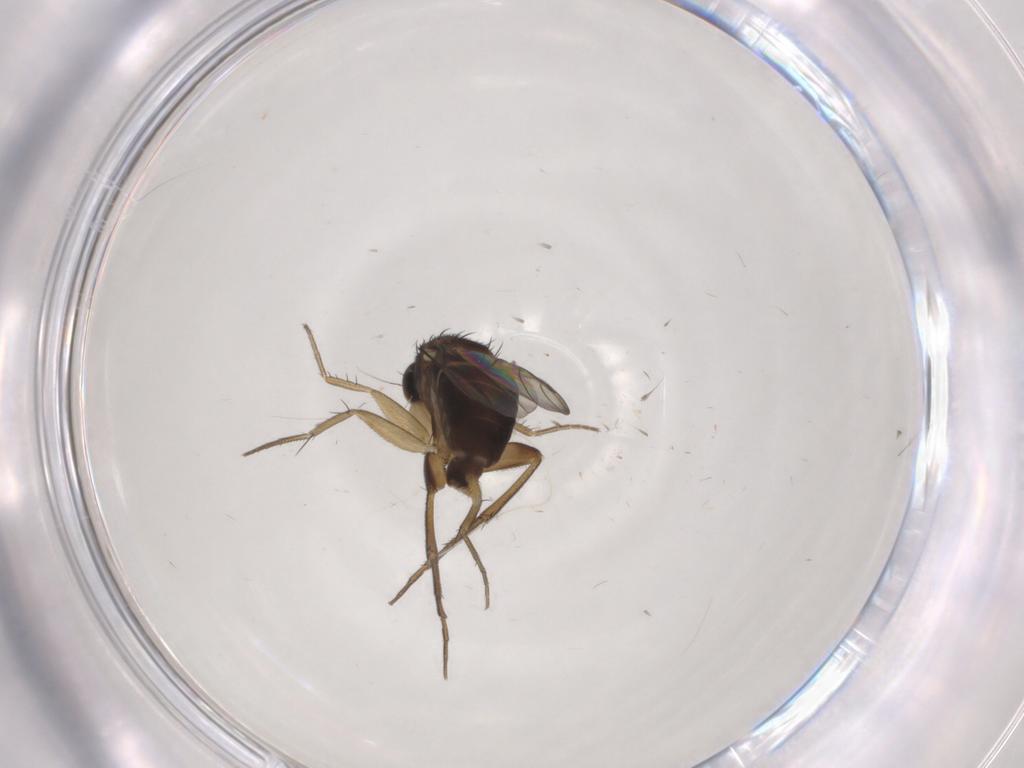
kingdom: Animalia
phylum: Arthropoda
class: Insecta
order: Diptera
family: Phoridae
